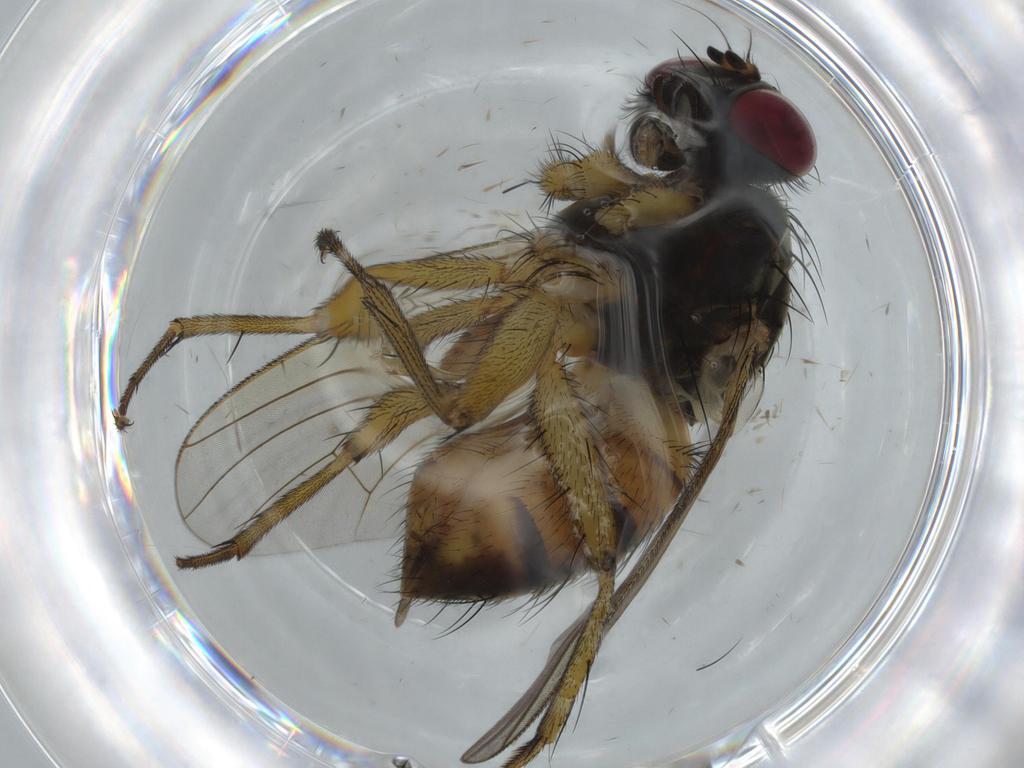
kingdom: Animalia
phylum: Arthropoda
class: Insecta
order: Diptera
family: Muscidae
